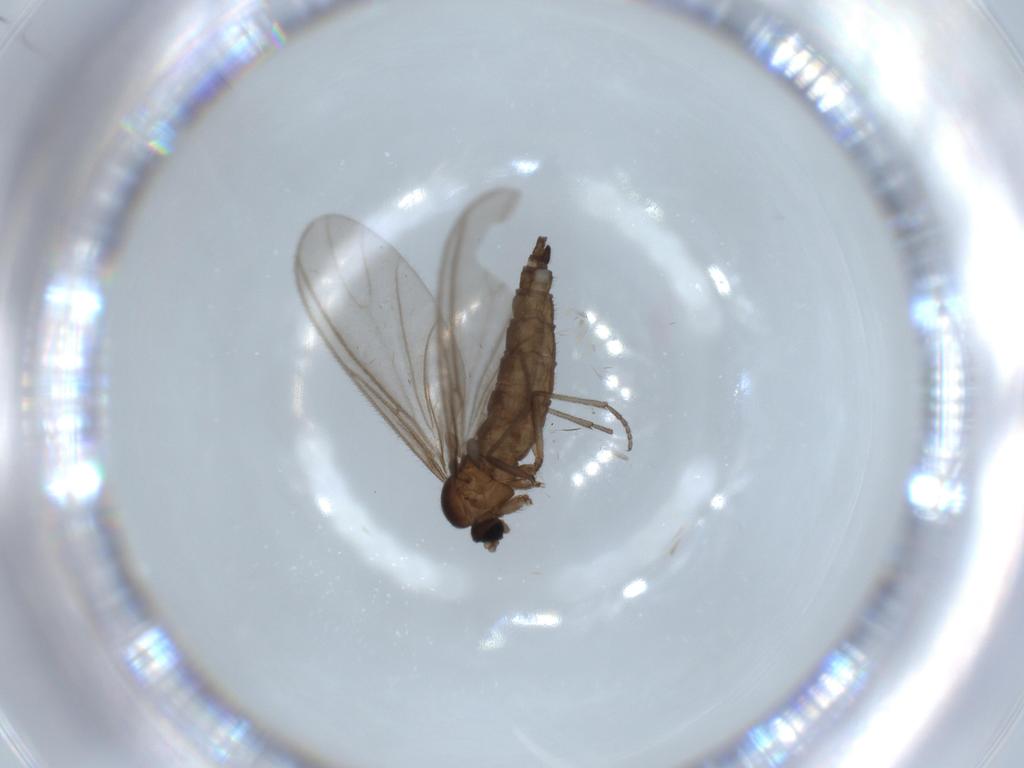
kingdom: Animalia
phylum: Arthropoda
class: Insecta
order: Diptera
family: Sciaridae
